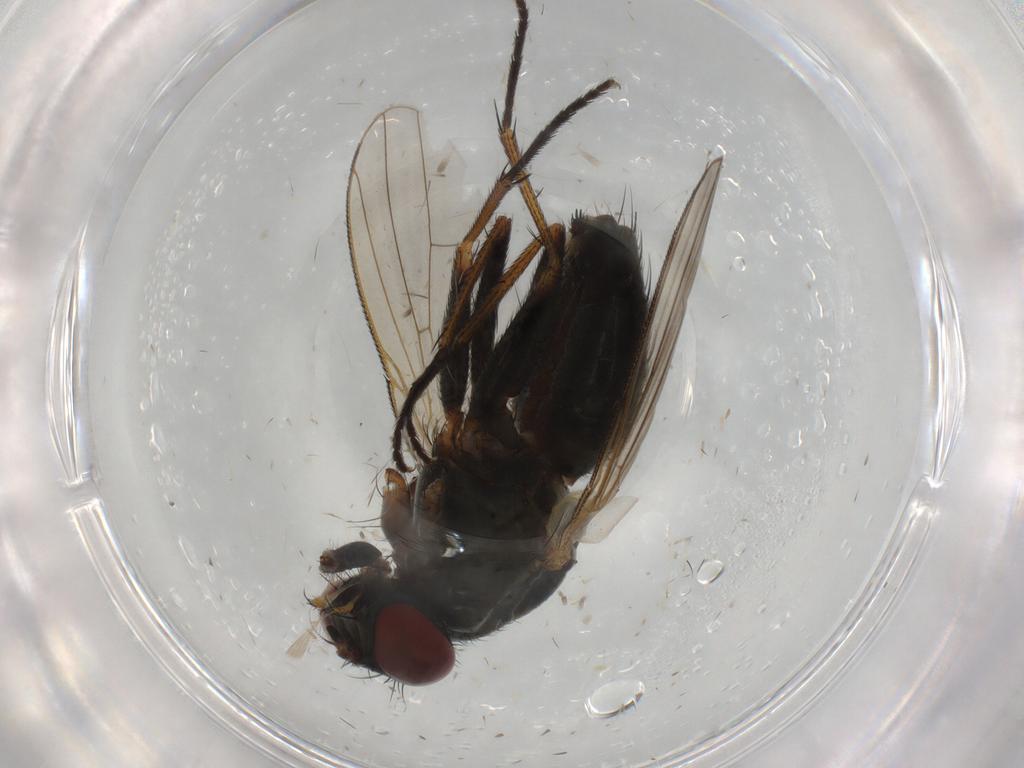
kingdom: Animalia
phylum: Arthropoda
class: Insecta
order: Diptera
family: Muscidae
